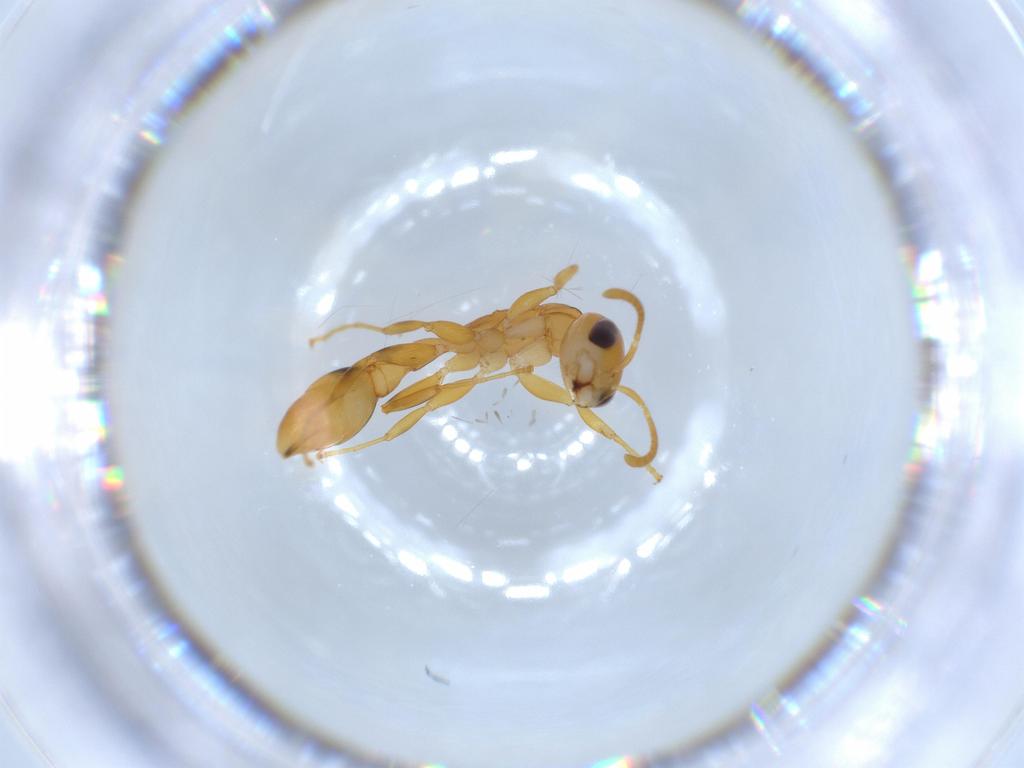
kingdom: Animalia
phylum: Arthropoda
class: Insecta
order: Hymenoptera
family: Formicidae
